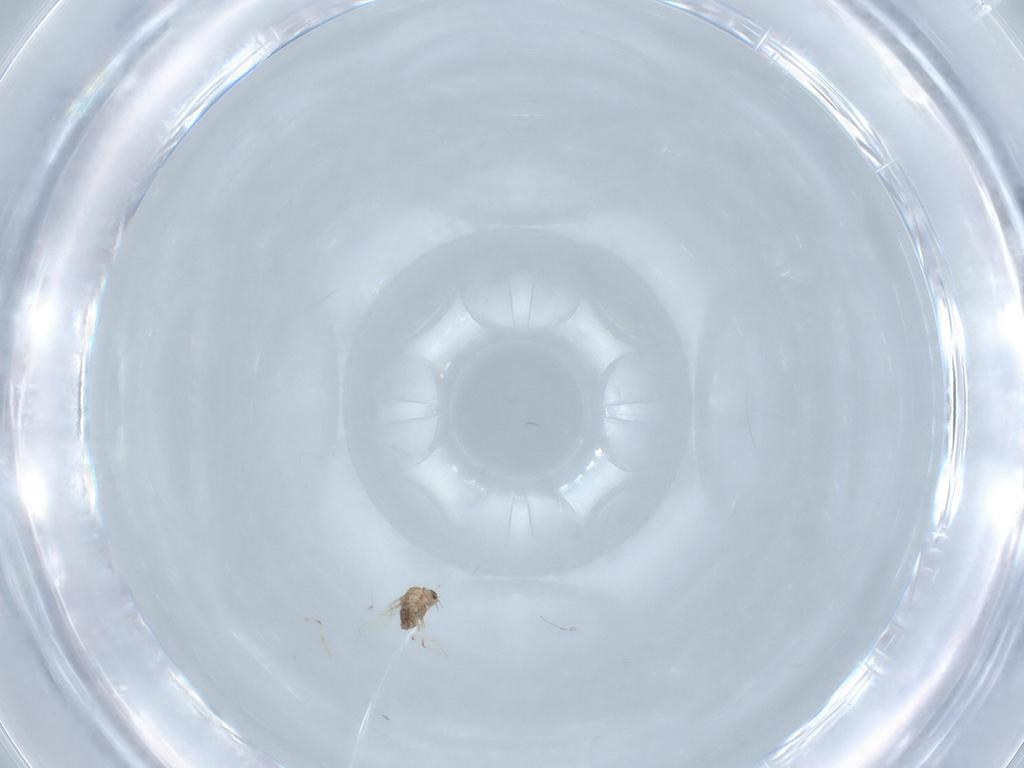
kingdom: Animalia
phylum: Arthropoda
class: Insecta
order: Diptera
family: Chironomidae
